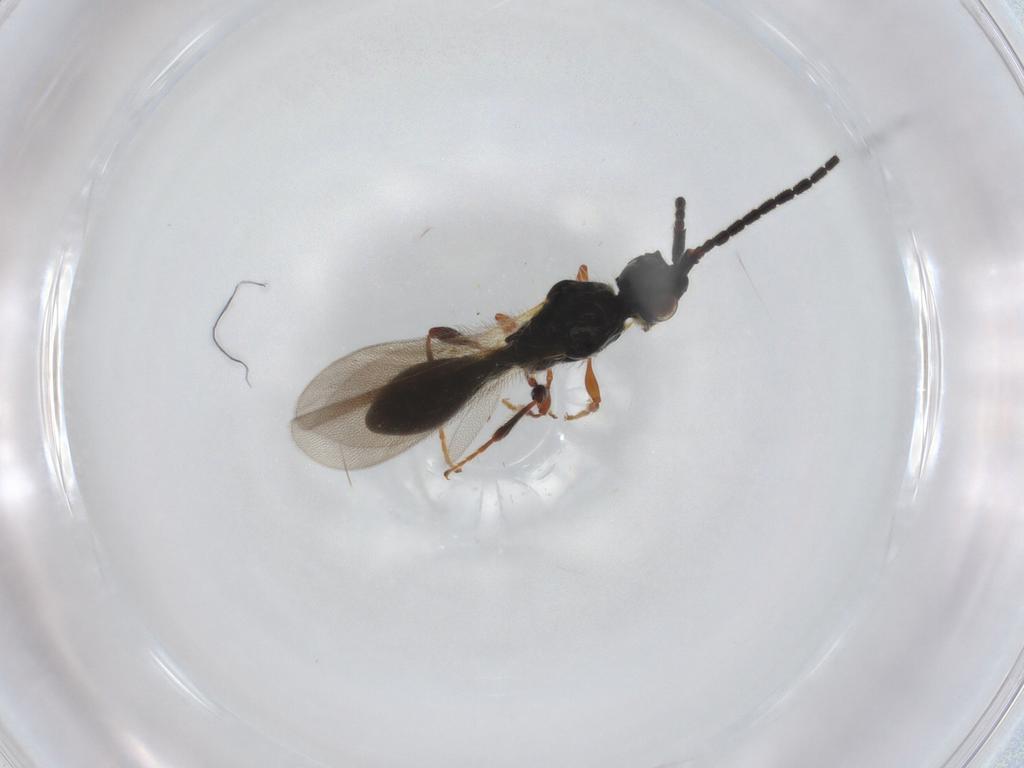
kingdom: Animalia
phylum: Arthropoda
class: Insecta
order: Hymenoptera
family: Diapriidae
